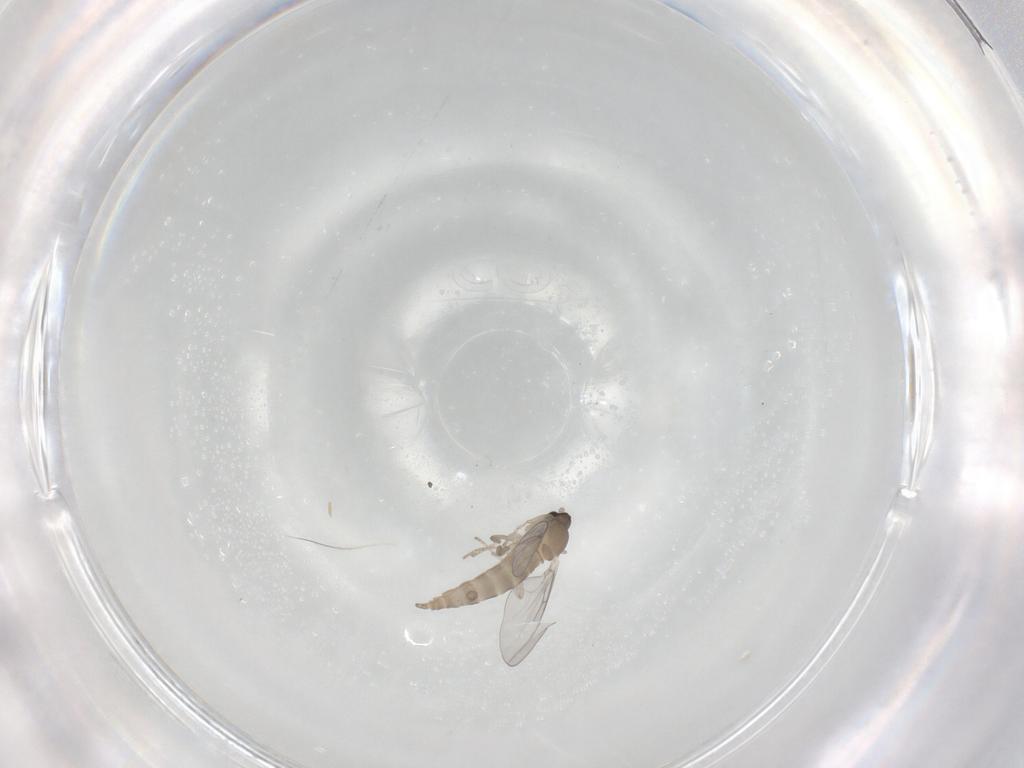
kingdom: Animalia
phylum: Arthropoda
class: Insecta
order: Diptera
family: Cecidomyiidae
